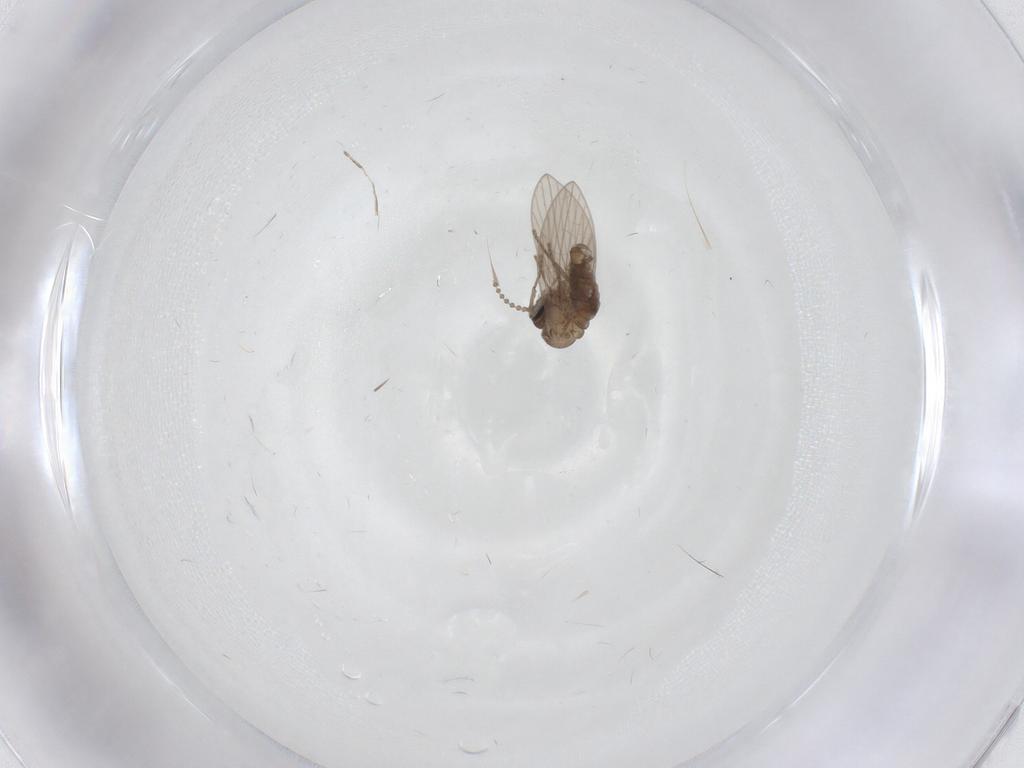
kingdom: Animalia
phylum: Arthropoda
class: Insecta
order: Diptera
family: Psychodidae
